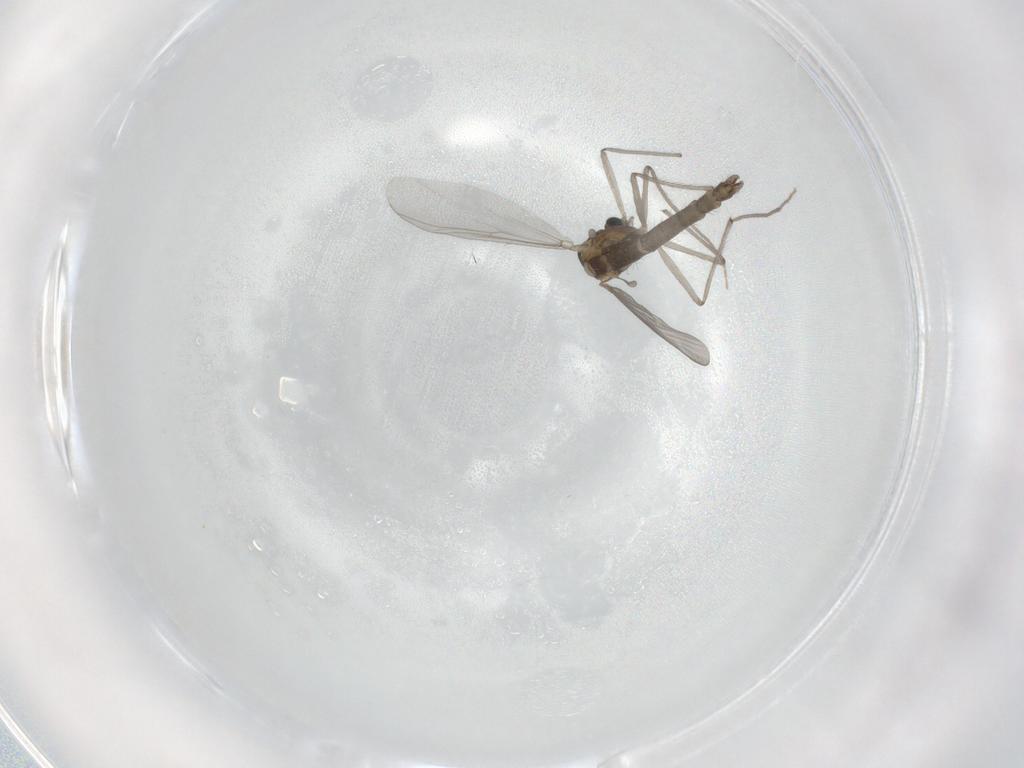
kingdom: Animalia
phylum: Arthropoda
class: Insecta
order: Diptera
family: Chironomidae
